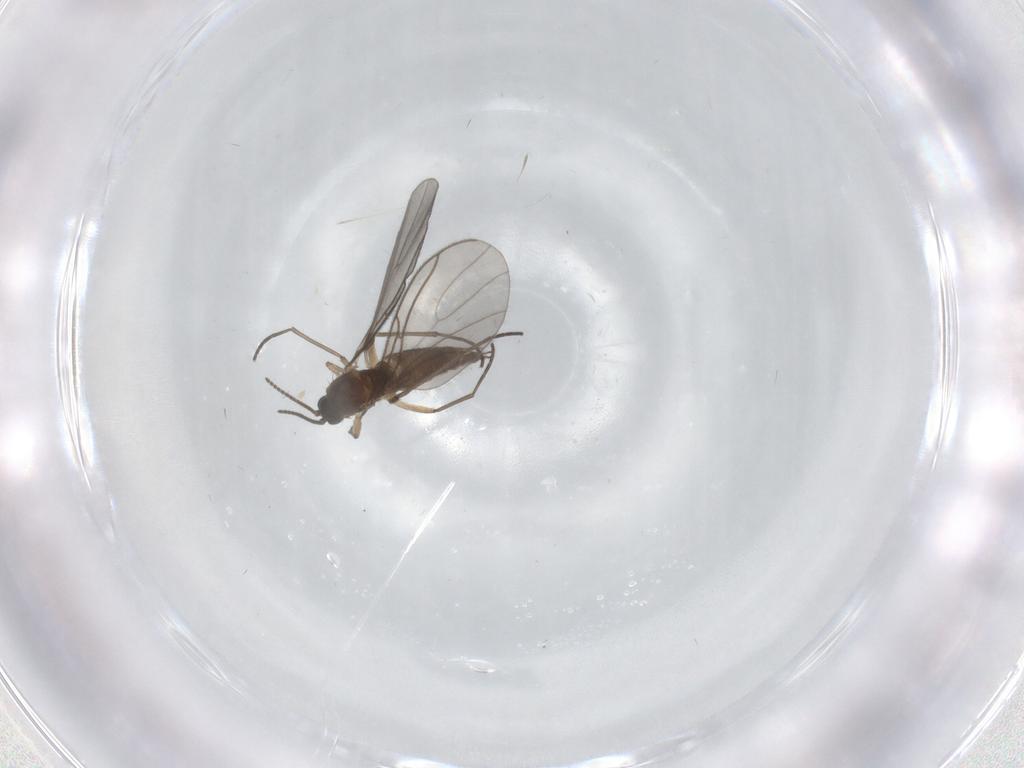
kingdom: Animalia
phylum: Arthropoda
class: Insecta
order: Diptera
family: Sciaridae
